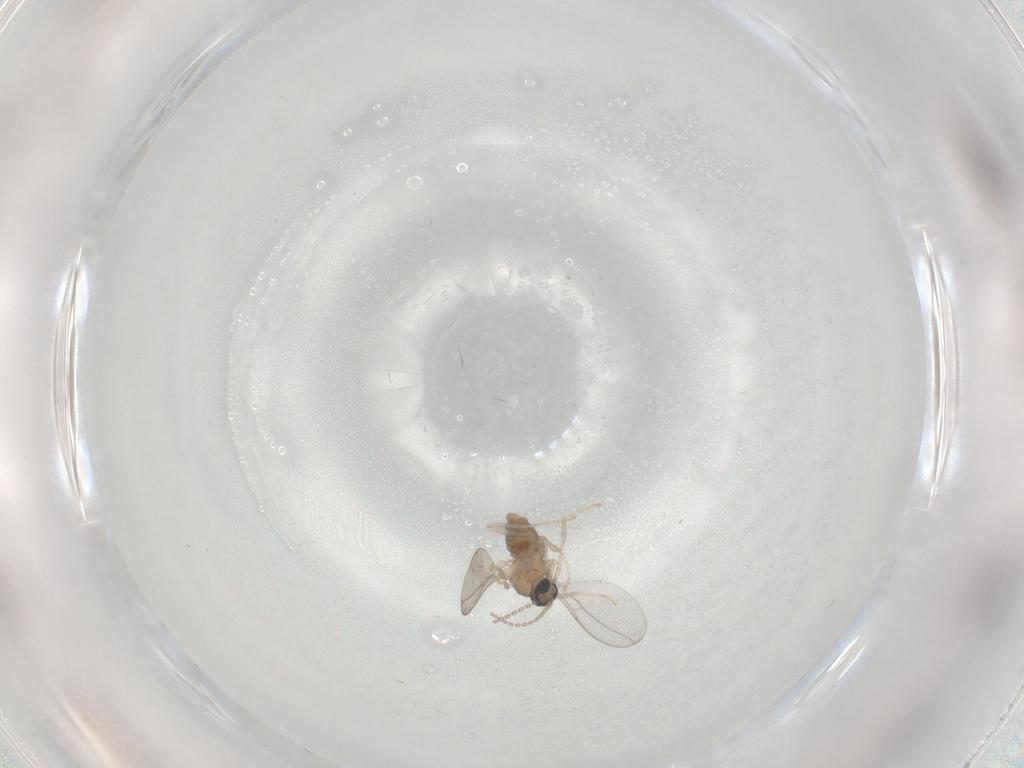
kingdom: Animalia
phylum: Arthropoda
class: Insecta
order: Diptera
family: Cecidomyiidae
